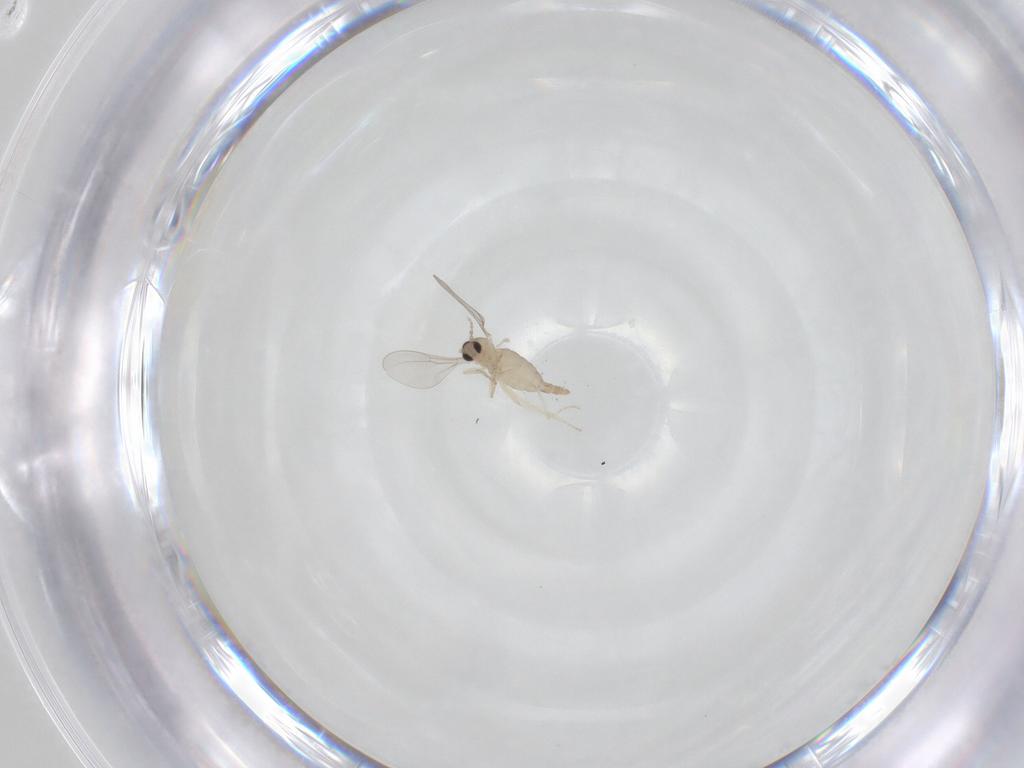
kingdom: Animalia
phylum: Arthropoda
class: Insecta
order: Diptera
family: Cecidomyiidae
